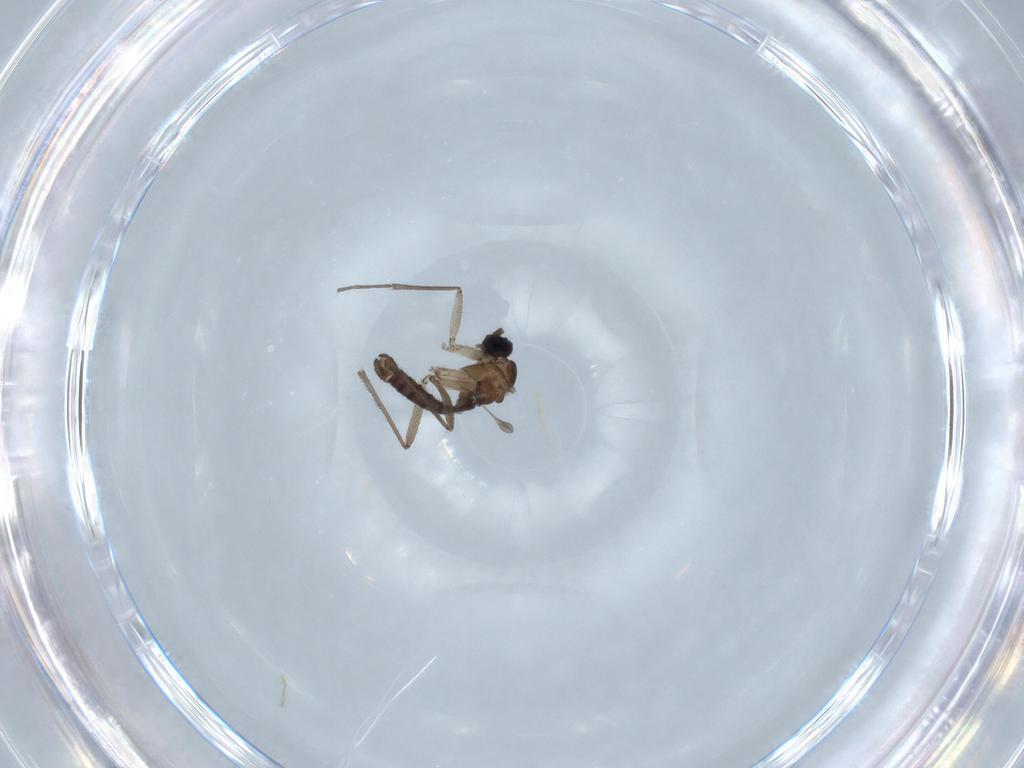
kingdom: Animalia
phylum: Arthropoda
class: Insecta
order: Diptera
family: Sciaridae
